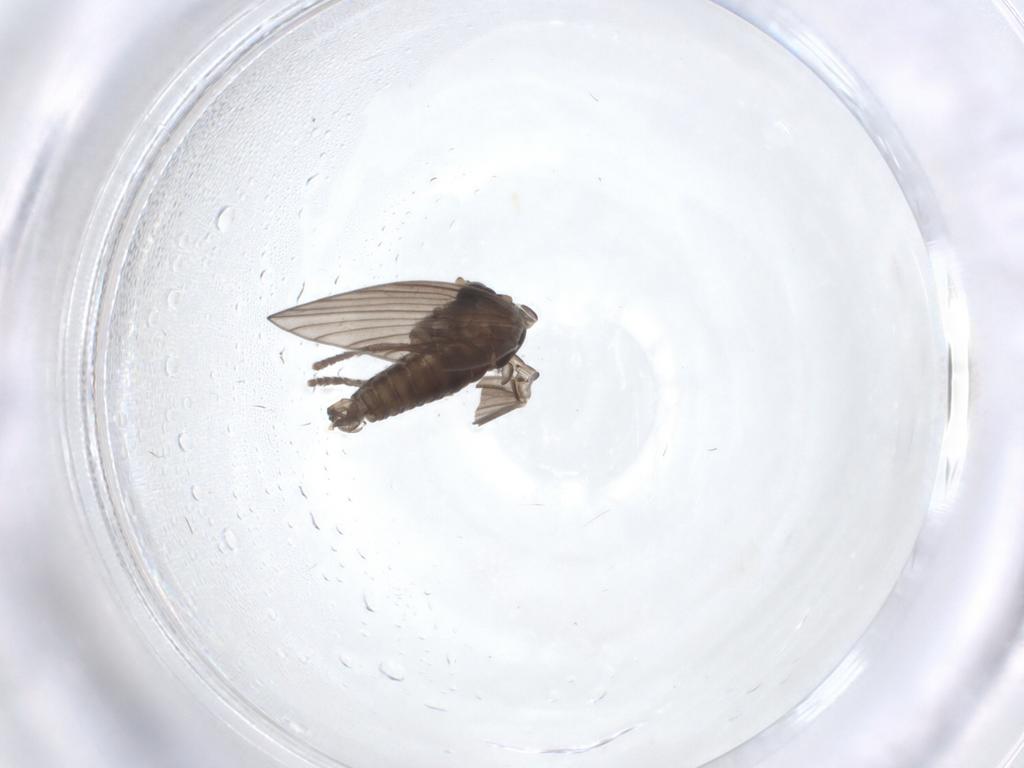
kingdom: Animalia
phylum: Arthropoda
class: Insecta
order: Diptera
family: Psychodidae
